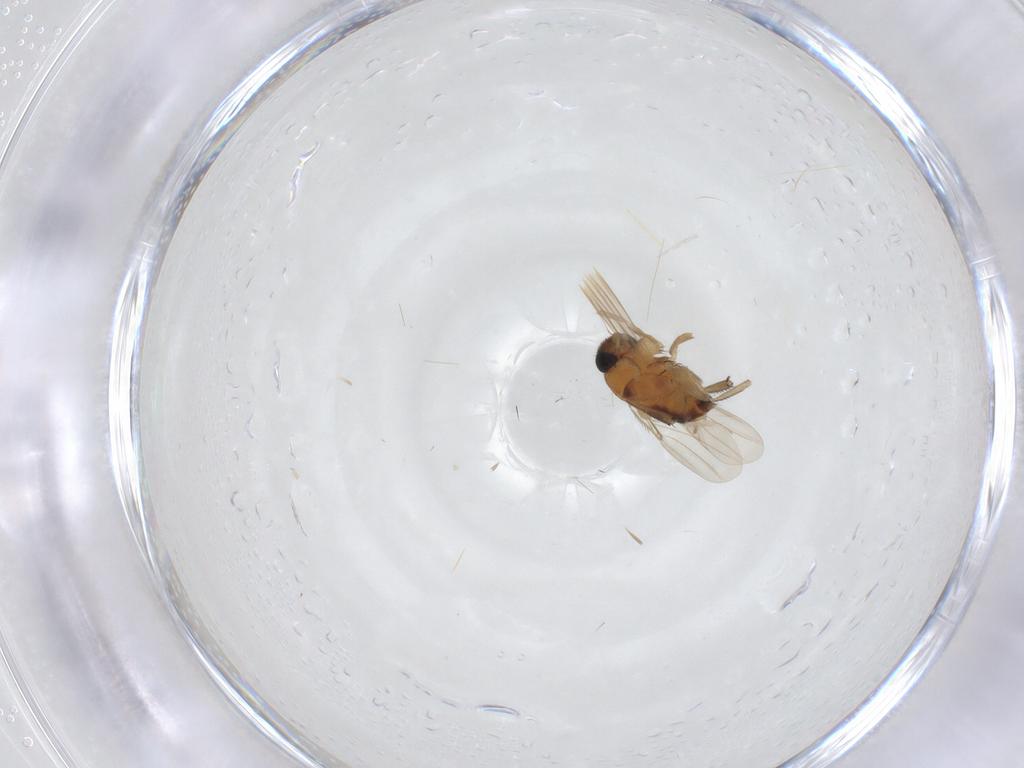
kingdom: Animalia
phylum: Arthropoda
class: Insecta
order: Diptera
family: Phoridae
